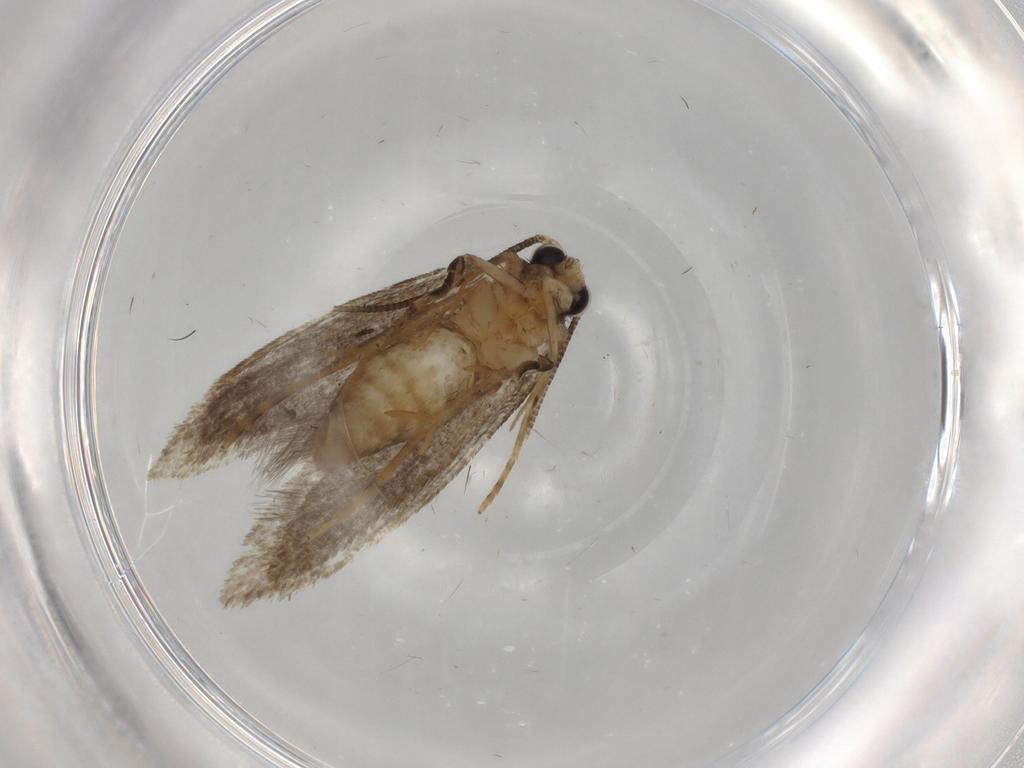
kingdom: Animalia
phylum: Arthropoda
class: Insecta
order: Lepidoptera
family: Tineidae
